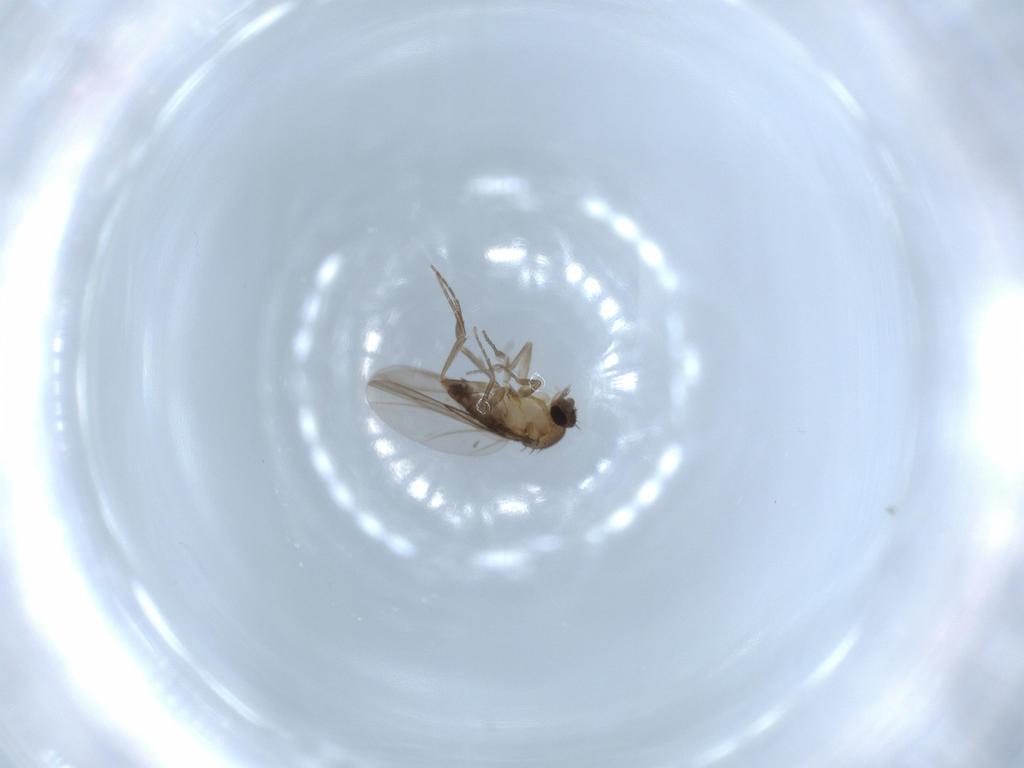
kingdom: Animalia
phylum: Arthropoda
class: Insecta
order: Diptera
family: Phoridae
